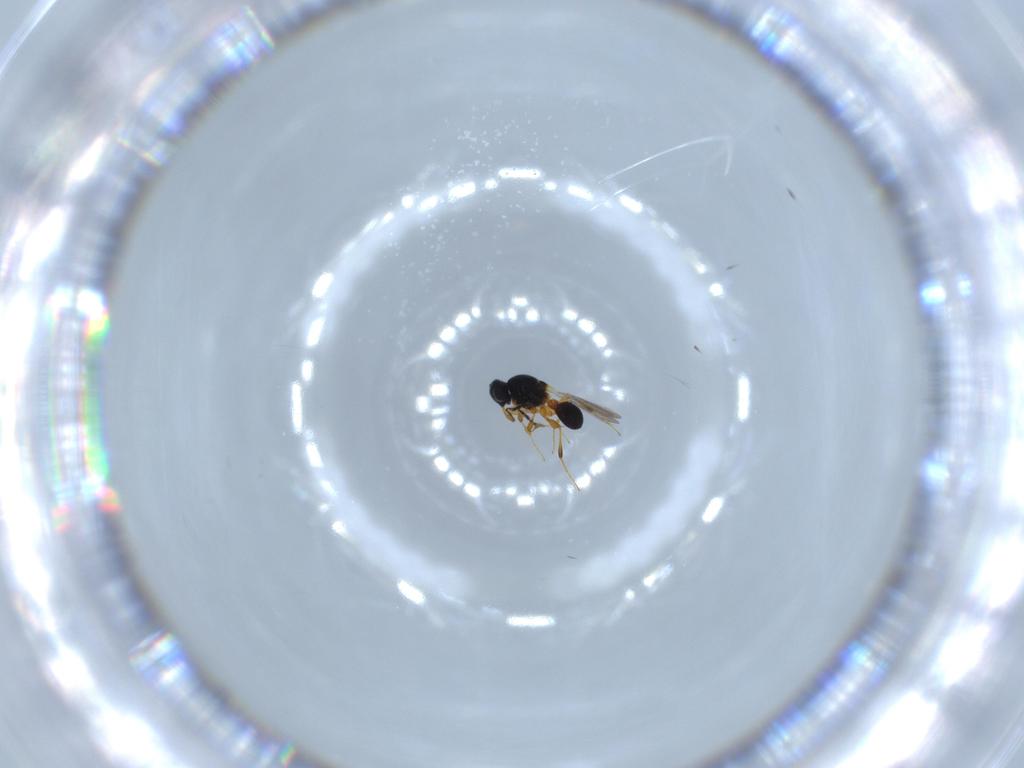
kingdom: Animalia
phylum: Arthropoda
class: Insecta
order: Hymenoptera
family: Platygastridae
